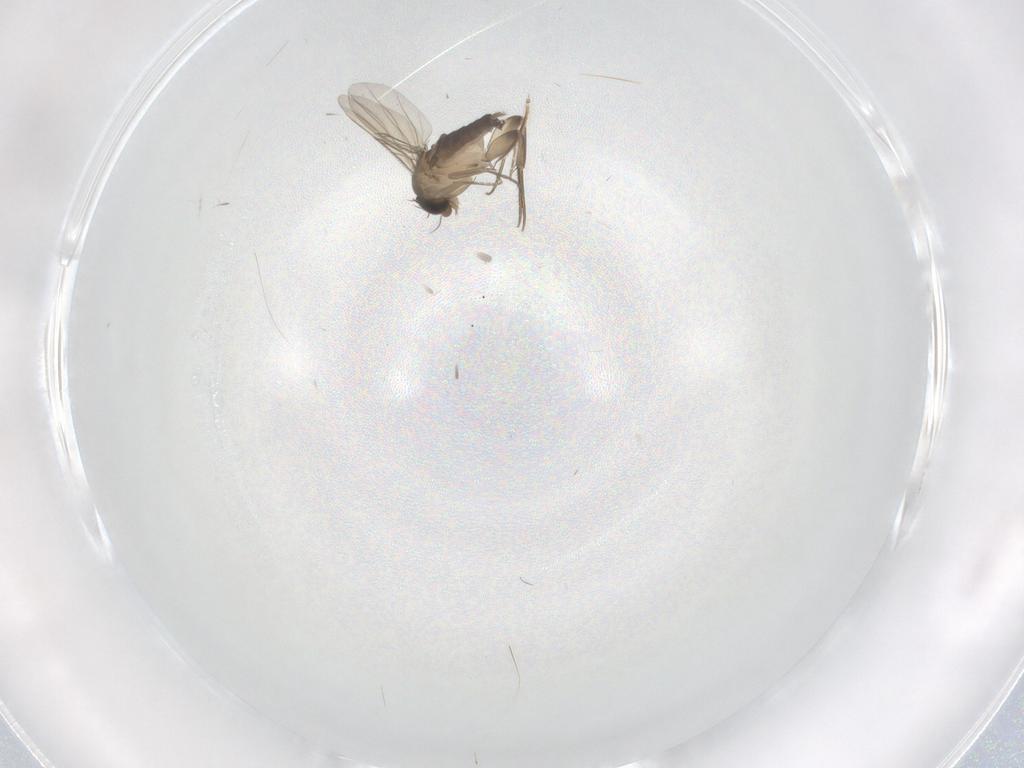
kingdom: Animalia
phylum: Arthropoda
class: Insecta
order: Diptera
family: Phoridae
